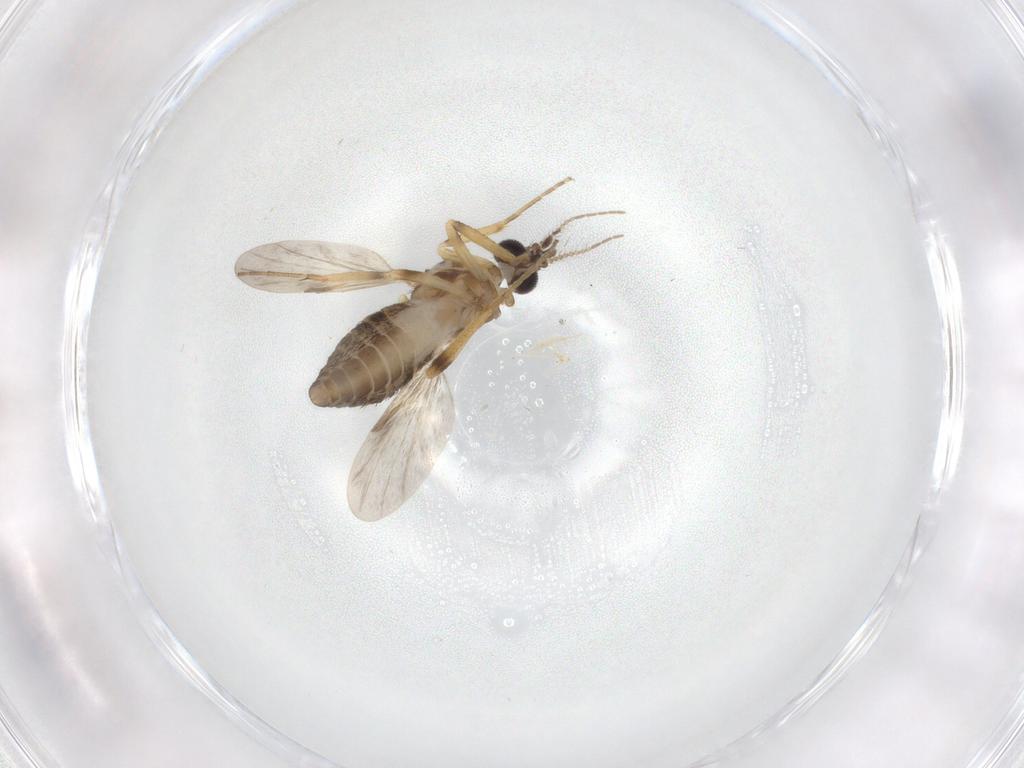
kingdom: Animalia
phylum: Arthropoda
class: Insecta
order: Diptera
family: Ceratopogonidae
